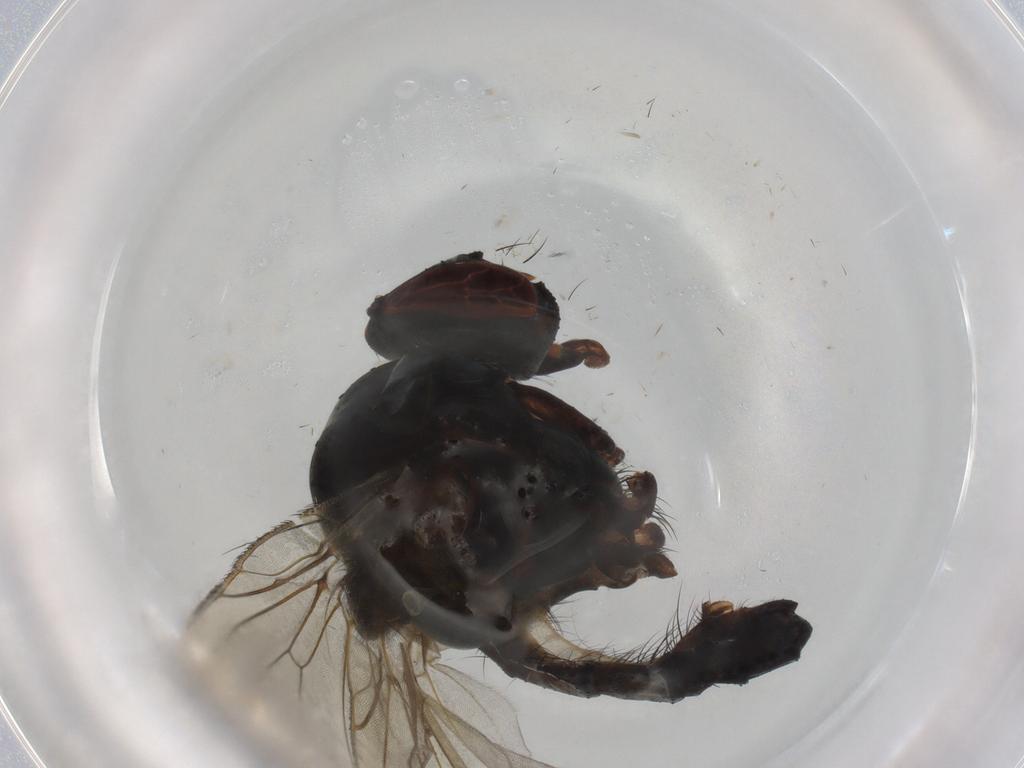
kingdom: Animalia
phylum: Arthropoda
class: Insecta
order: Diptera
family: Anthomyiidae
